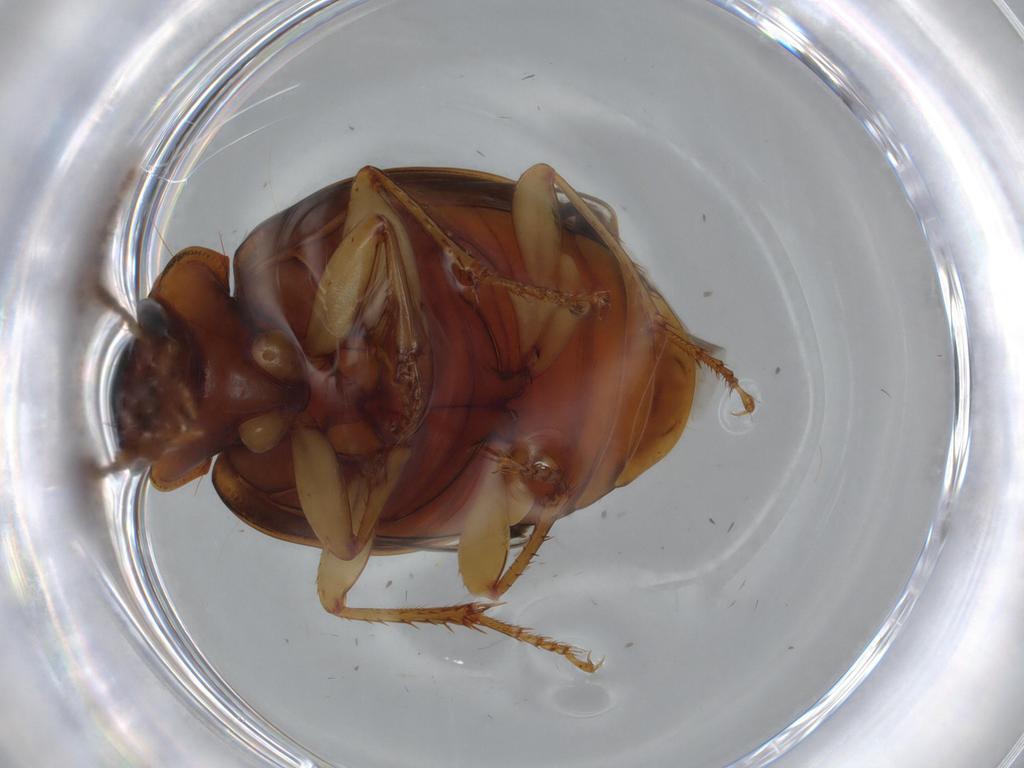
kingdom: Animalia
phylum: Arthropoda
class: Insecta
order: Coleoptera
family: Carabidae
